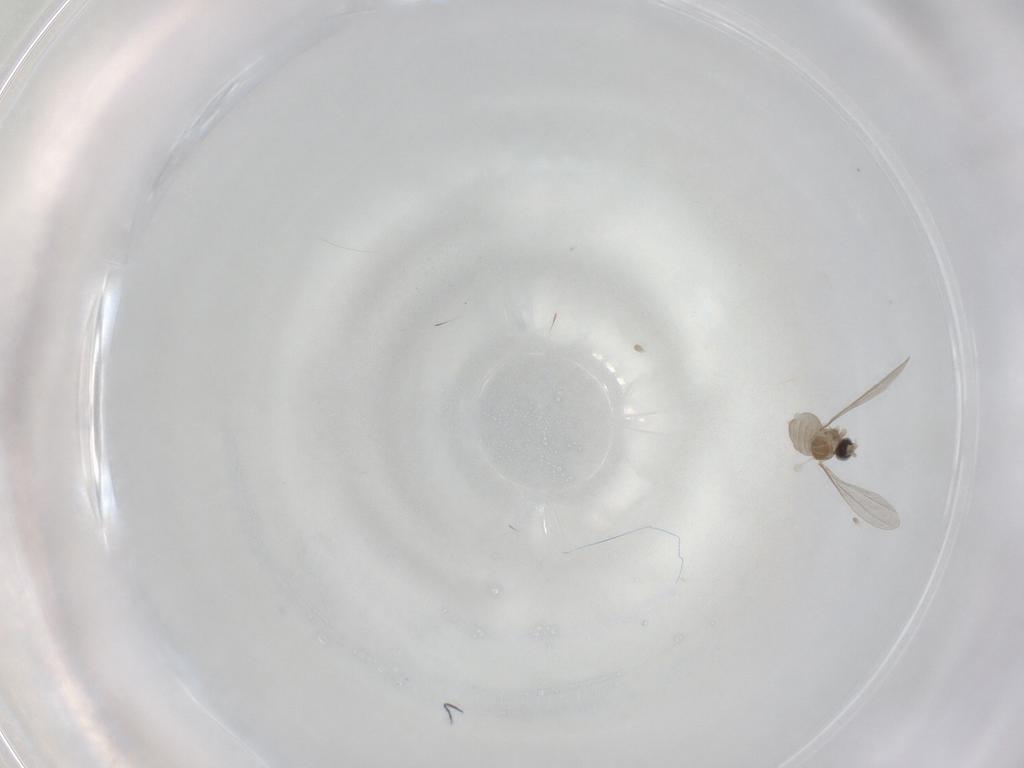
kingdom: Animalia
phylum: Arthropoda
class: Insecta
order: Diptera
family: Cecidomyiidae
